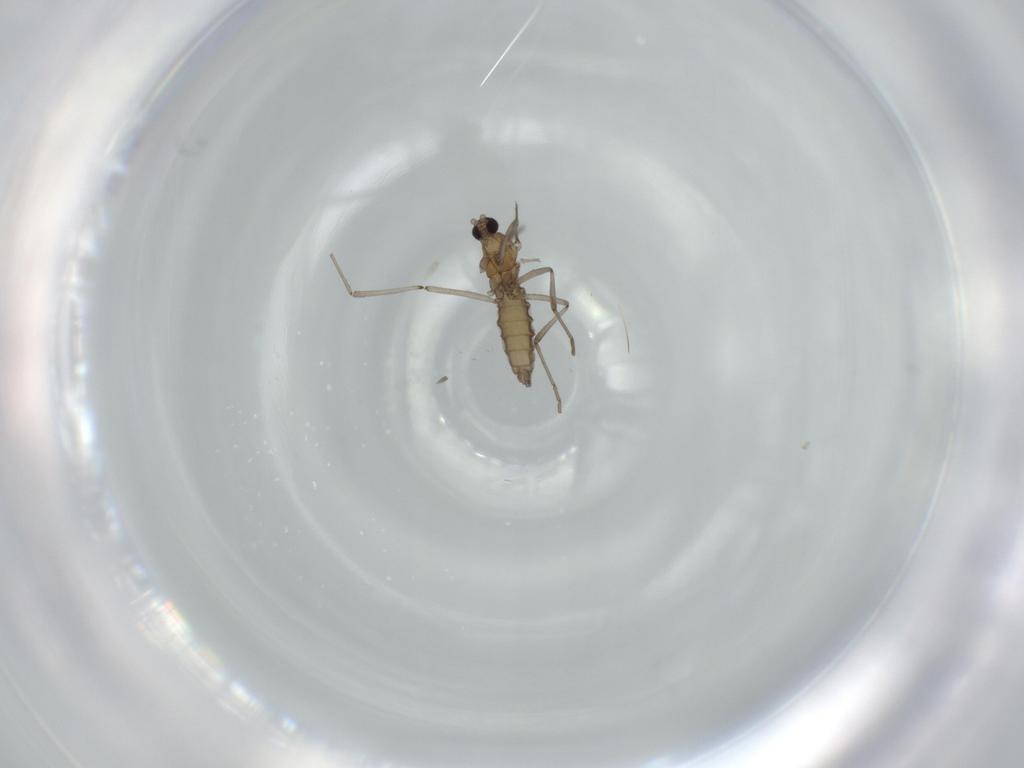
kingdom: Animalia
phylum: Arthropoda
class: Insecta
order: Diptera
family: Cecidomyiidae
